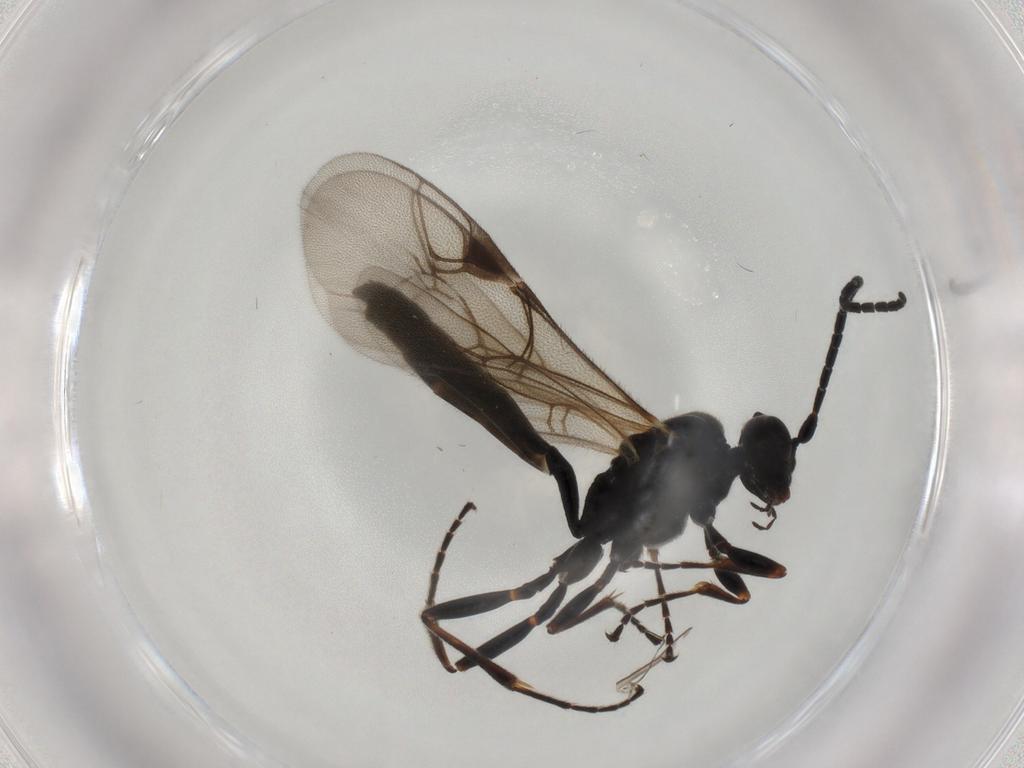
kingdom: Animalia
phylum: Arthropoda
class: Insecta
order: Hymenoptera
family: Ichneumonidae
